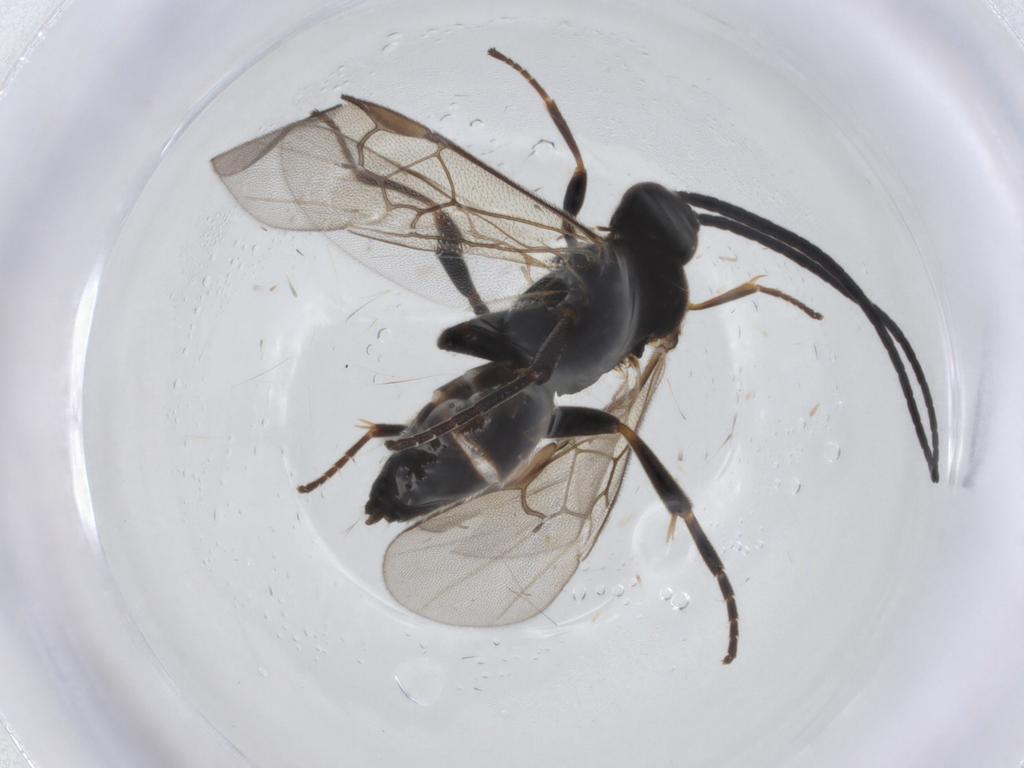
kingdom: Animalia
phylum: Arthropoda
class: Insecta
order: Hymenoptera
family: Braconidae
